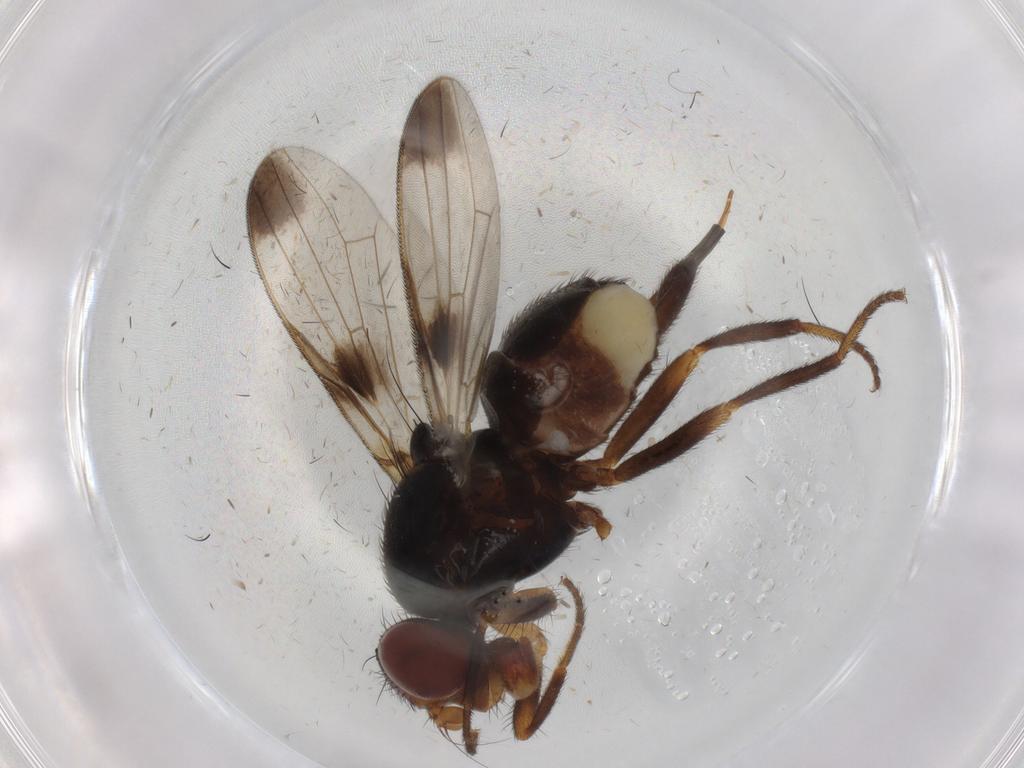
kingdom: Animalia
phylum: Arthropoda
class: Insecta
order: Diptera
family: Ulidiidae
